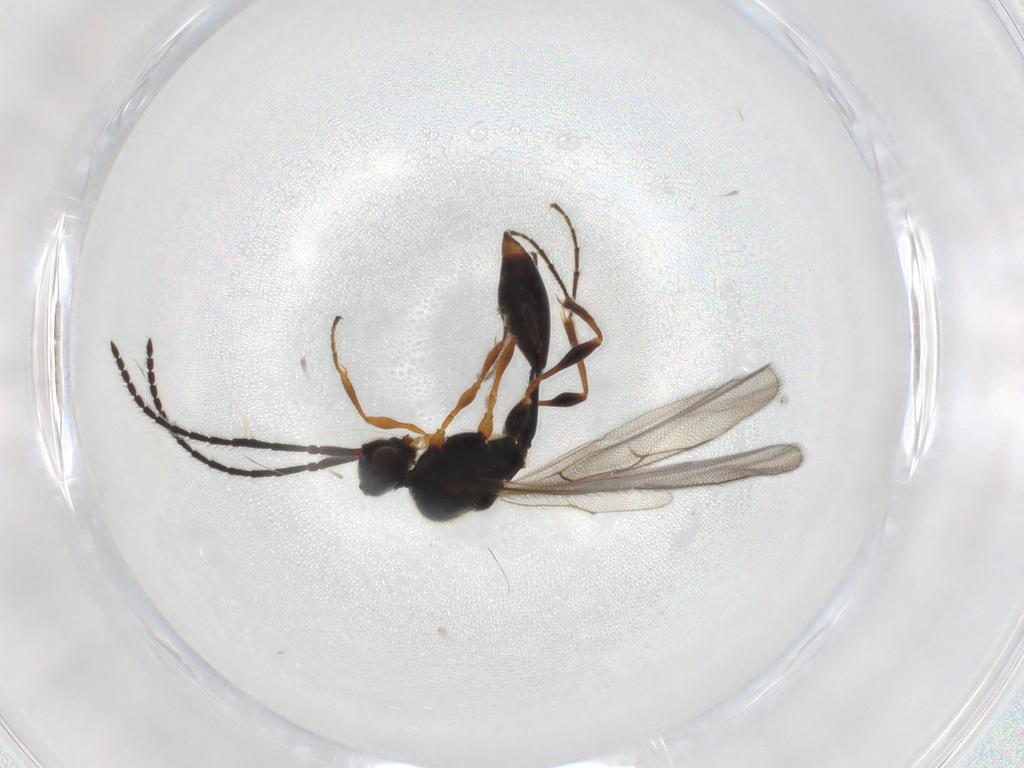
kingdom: Animalia
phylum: Arthropoda
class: Insecta
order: Hymenoptera
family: Diapriidae
